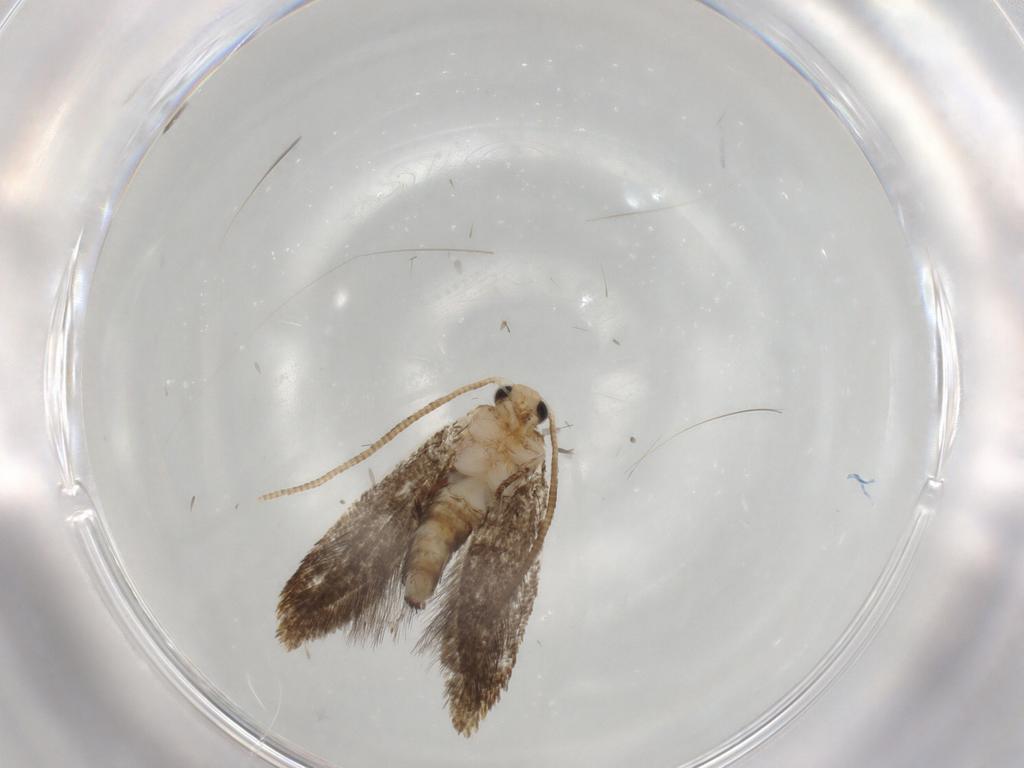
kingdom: Animalia
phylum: Arthropoda
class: Insecta
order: Lepidoptera
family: Tineidae
